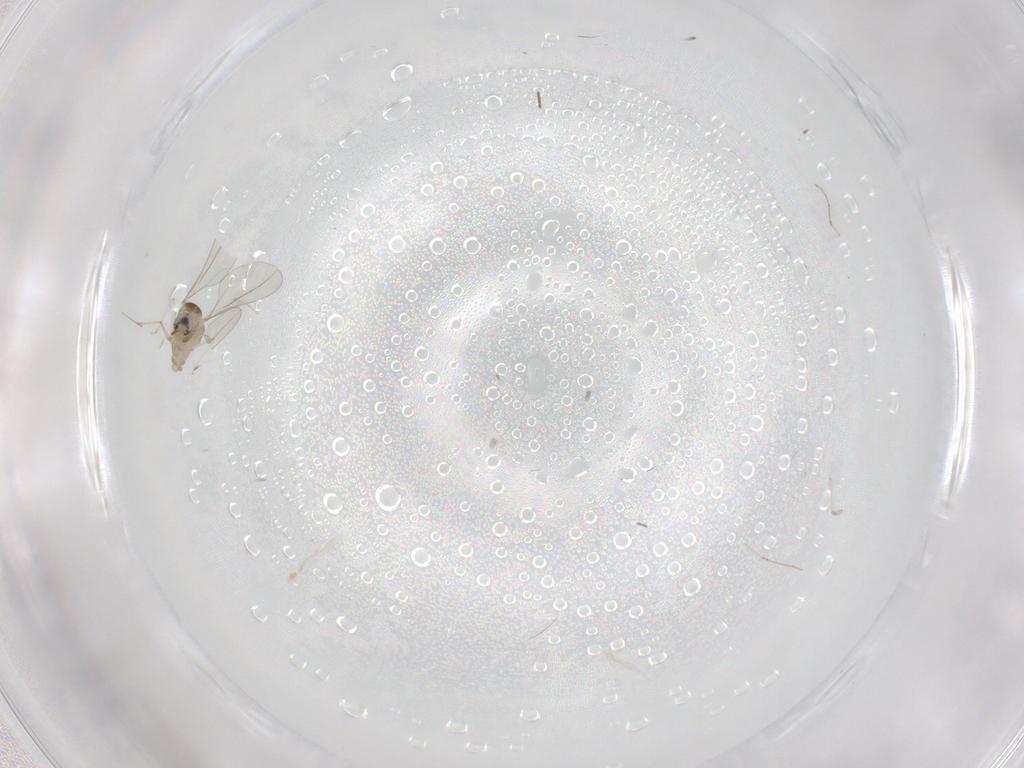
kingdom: Animalia
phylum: Arthropoda
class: Insecta
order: Diptera
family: Cecidomyiidae
